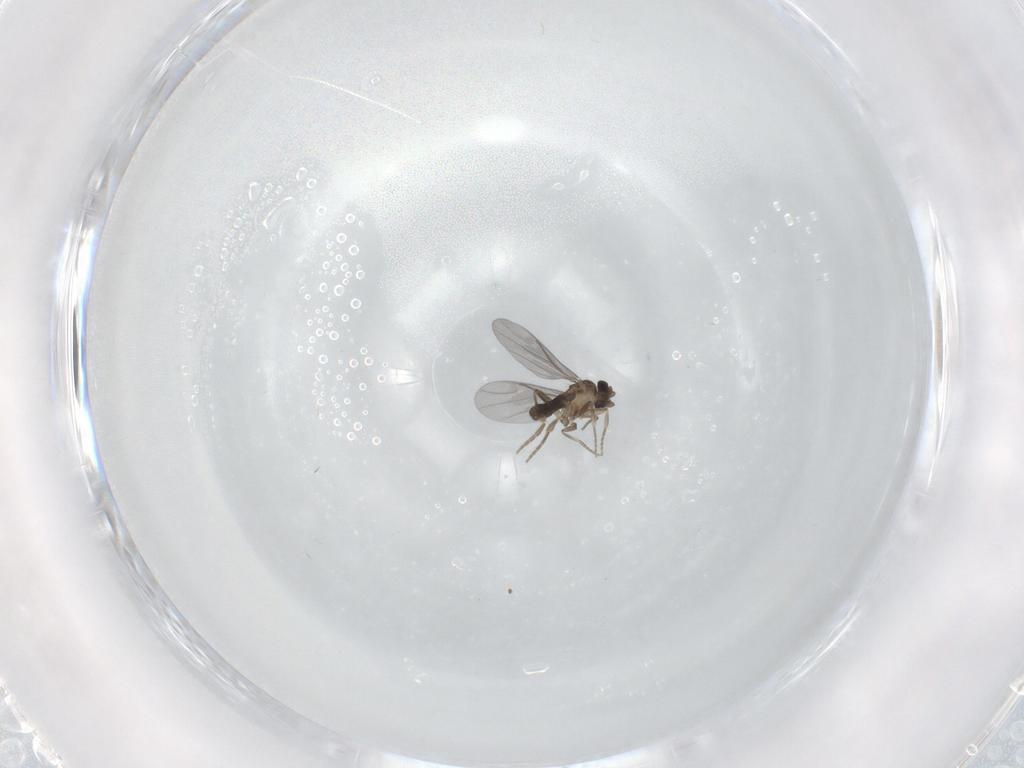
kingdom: Animalia
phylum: Arthropoda
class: Insecta
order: Diptera
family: Phoridae
